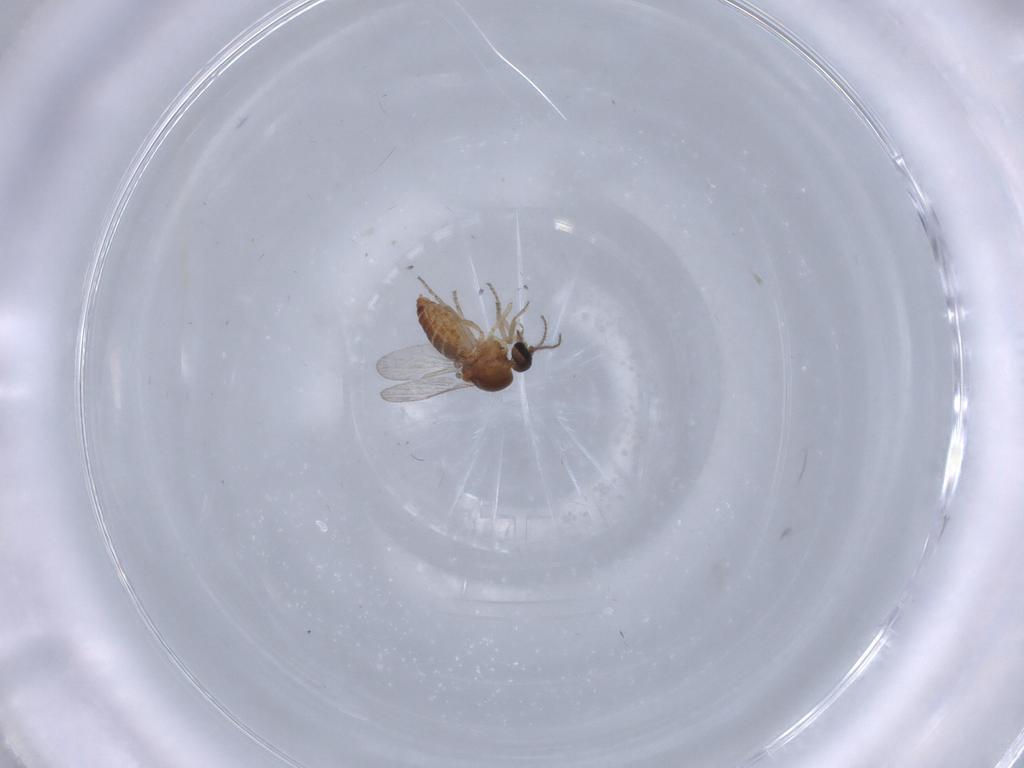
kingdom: Animalia
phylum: Arthropoda
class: Insecta
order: Diptera
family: Ceratopogonidae
